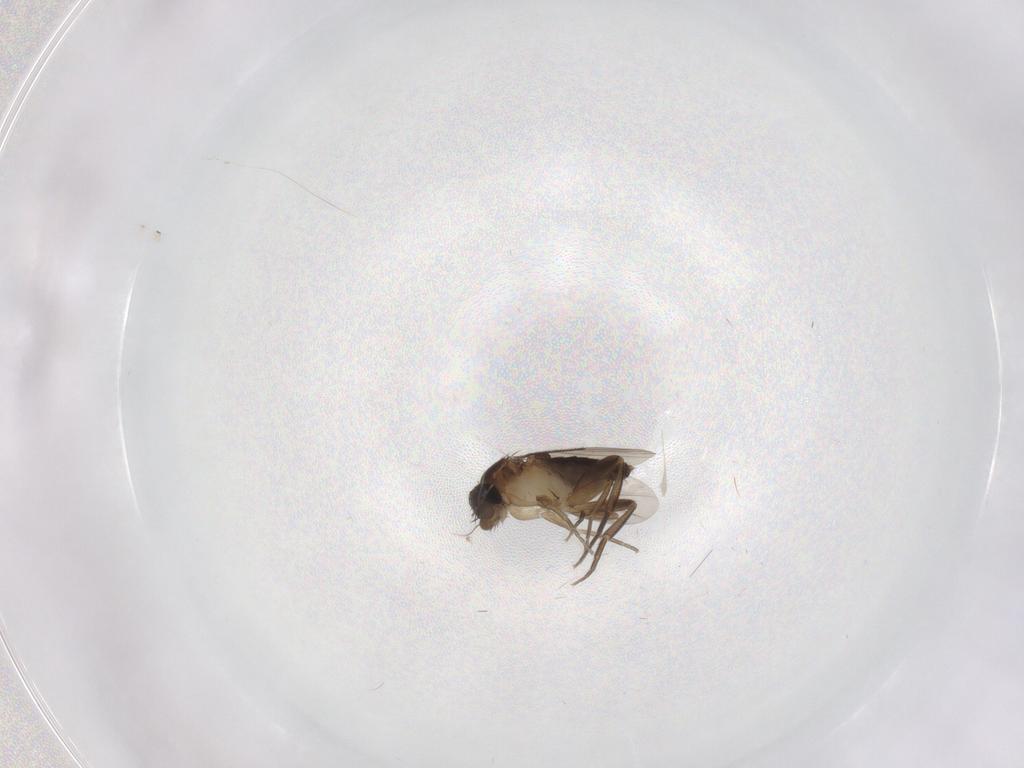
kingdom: Animalia
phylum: Arthropoda
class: Insecta
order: Diptera
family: Phoridae
